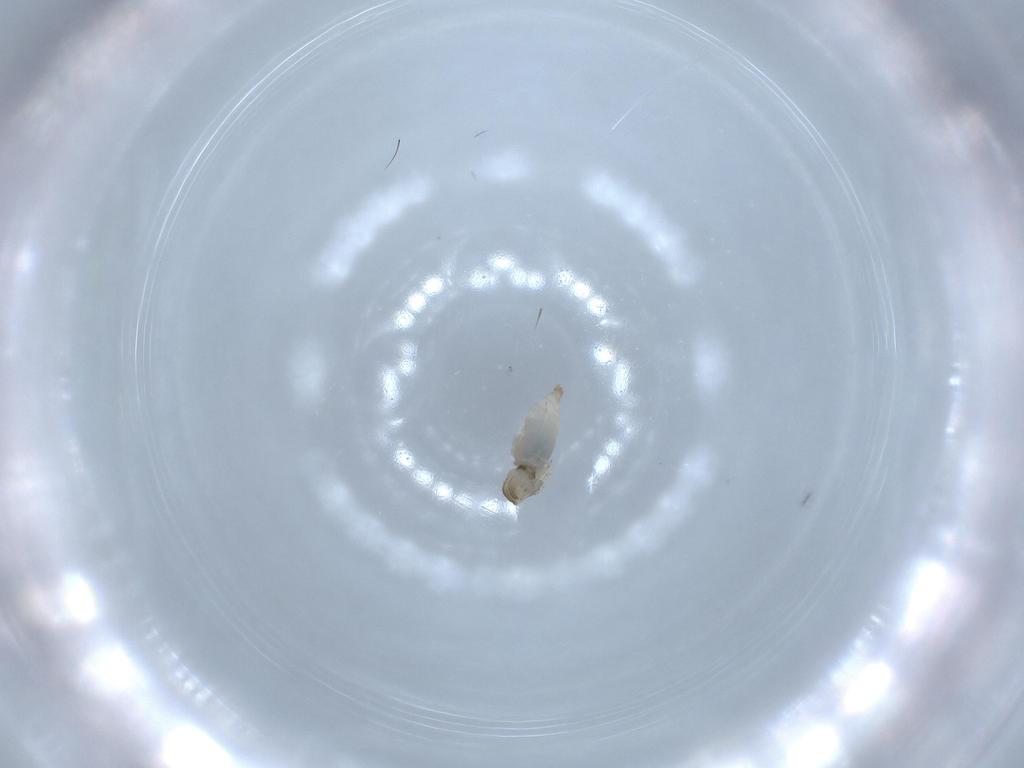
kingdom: Animalia
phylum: Arthropoda
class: Insecta
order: Diptera
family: Cecidomyiidae
